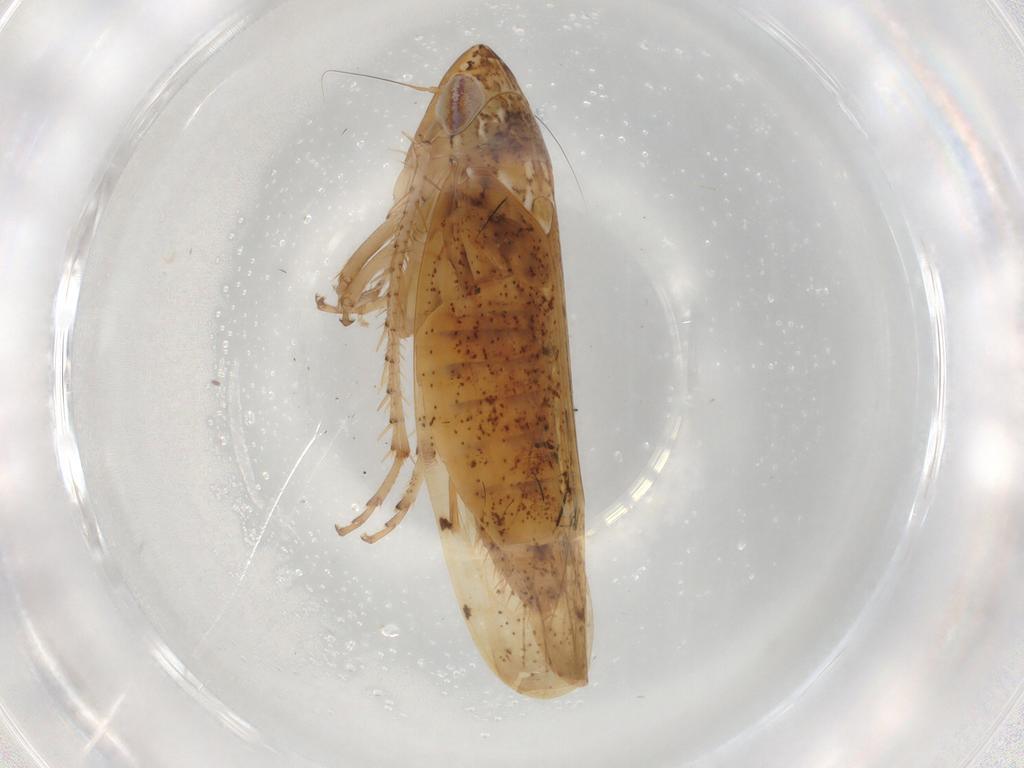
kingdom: Animalia
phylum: Arthropoda
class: Insecta
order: Hemiptera
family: Cicadellidae
